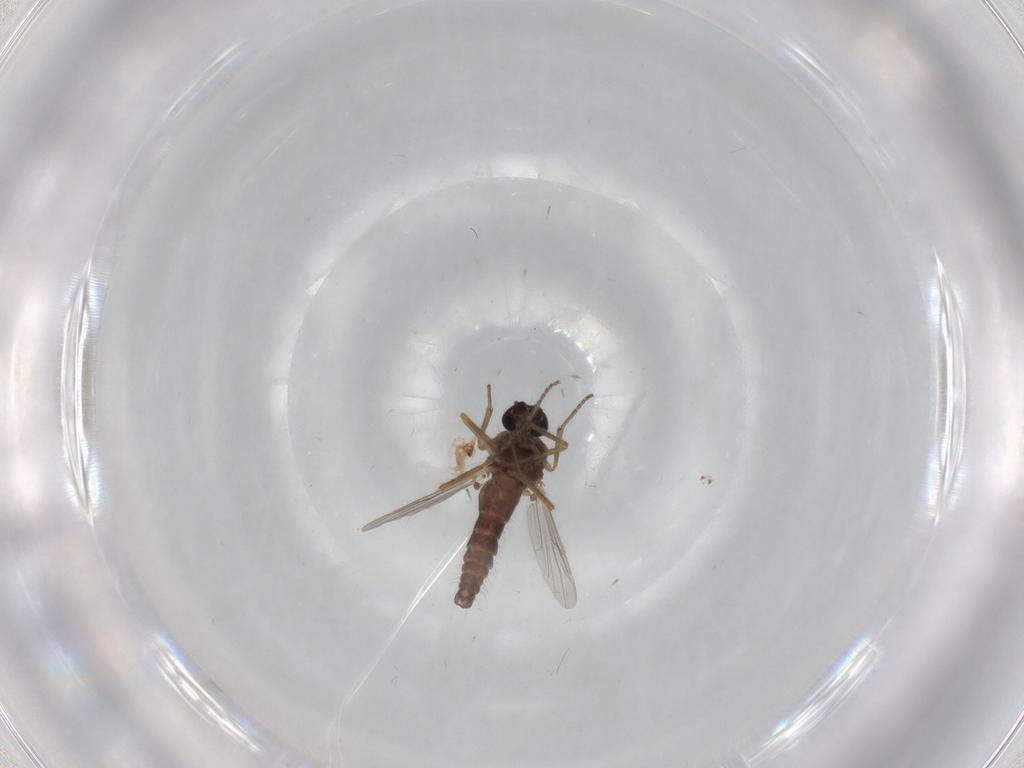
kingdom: Animalia
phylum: Arthropoda
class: Insecta
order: Diptera
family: Ceratopogonidae
